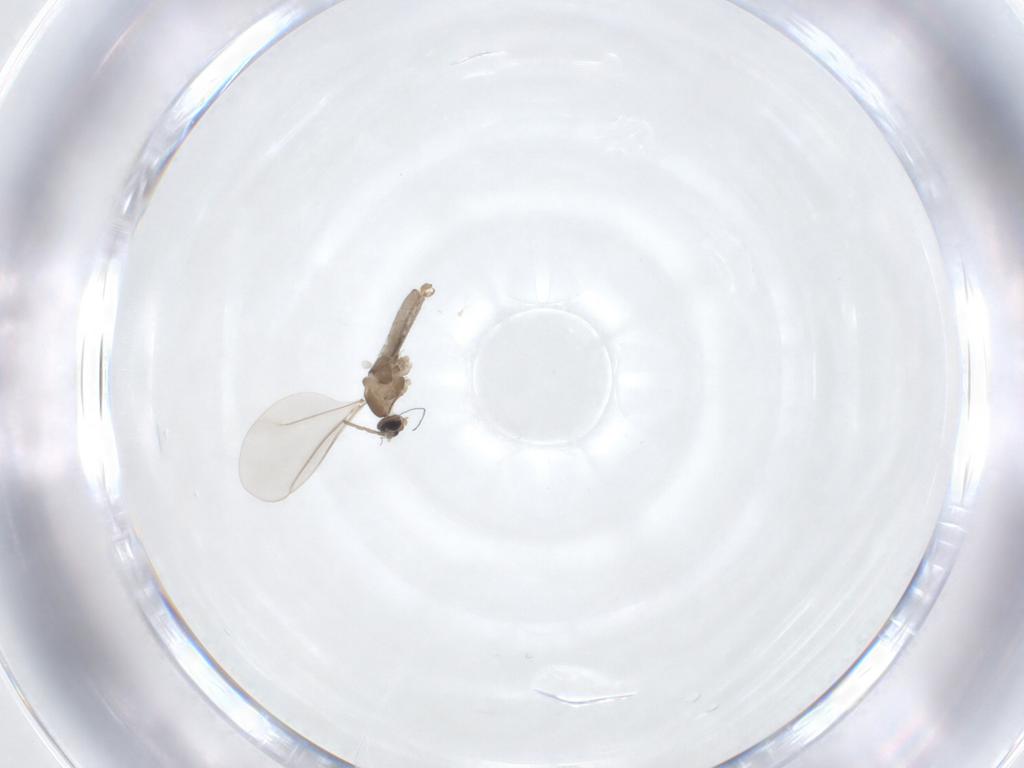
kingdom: Animalia
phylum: Arthropoda
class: Insecta
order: Diptera
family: Cecidomyiidae
